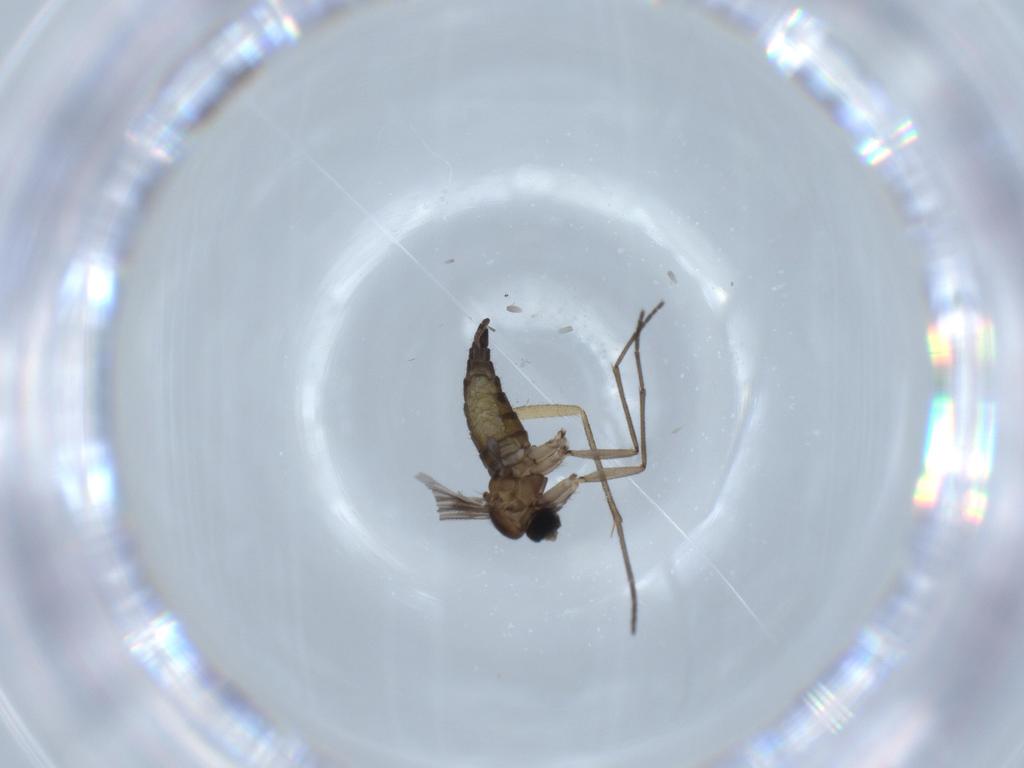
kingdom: Animalia
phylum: Arthropoda
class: Insecta
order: Diptera
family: Sciaridae
